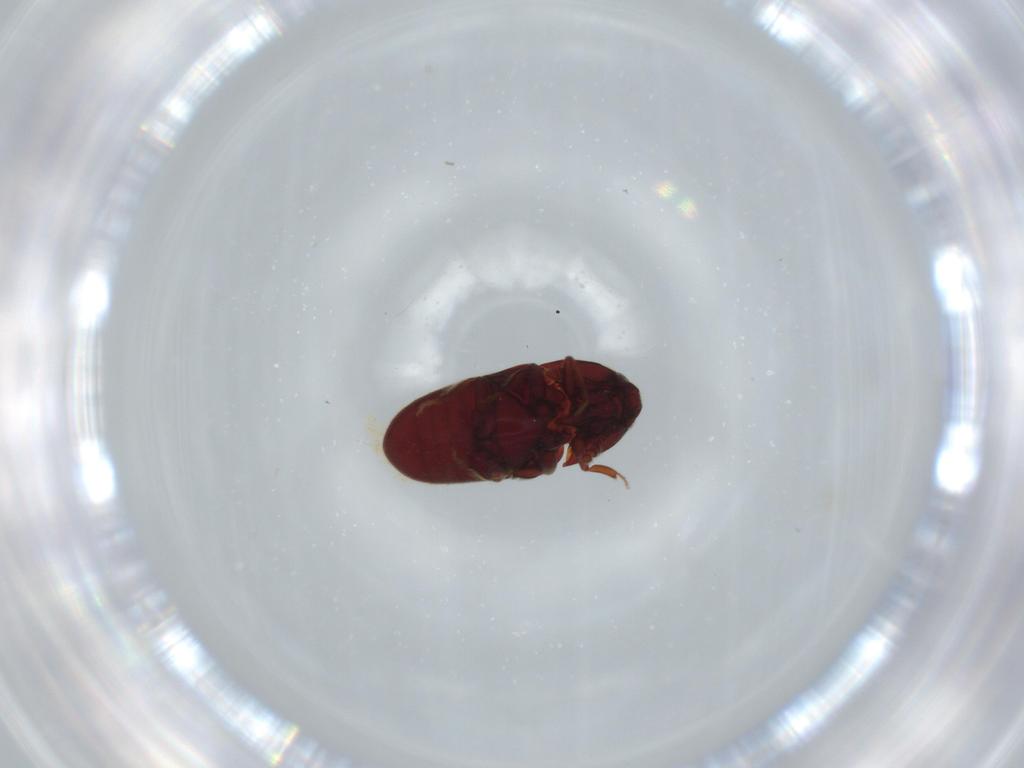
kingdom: Animalia
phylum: Arthropoda
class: Insecta
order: Coleoptera
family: Throscidae
